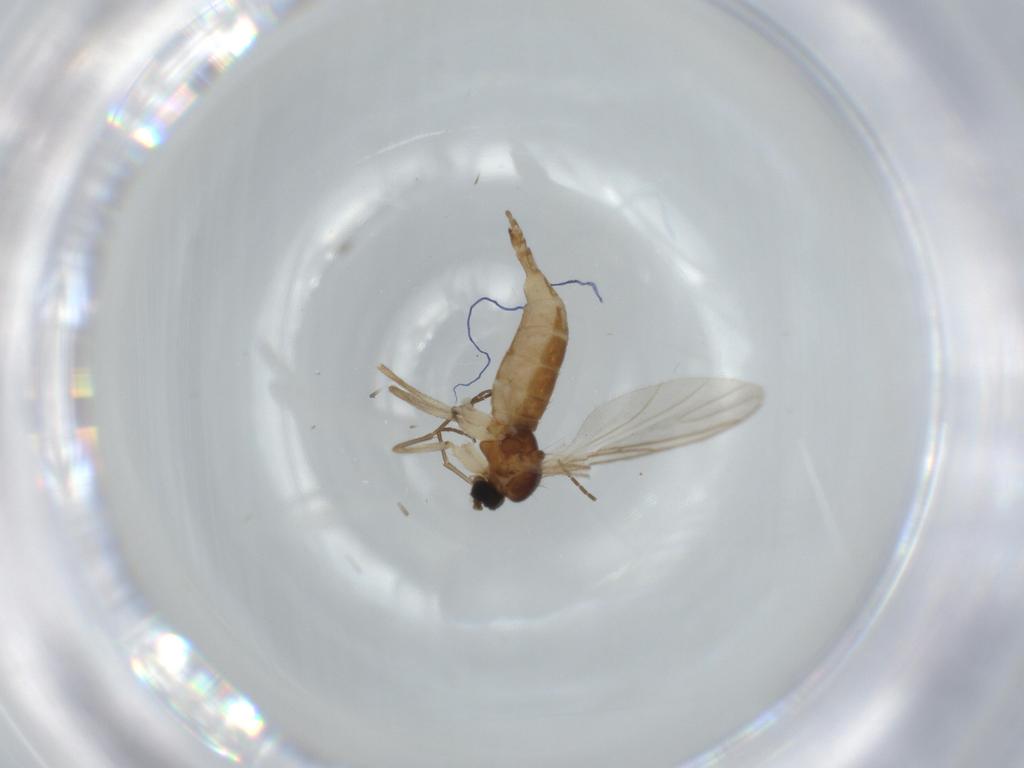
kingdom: Animalia
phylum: Arthropoda
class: Insecta
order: Diptera
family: Sciaridae
